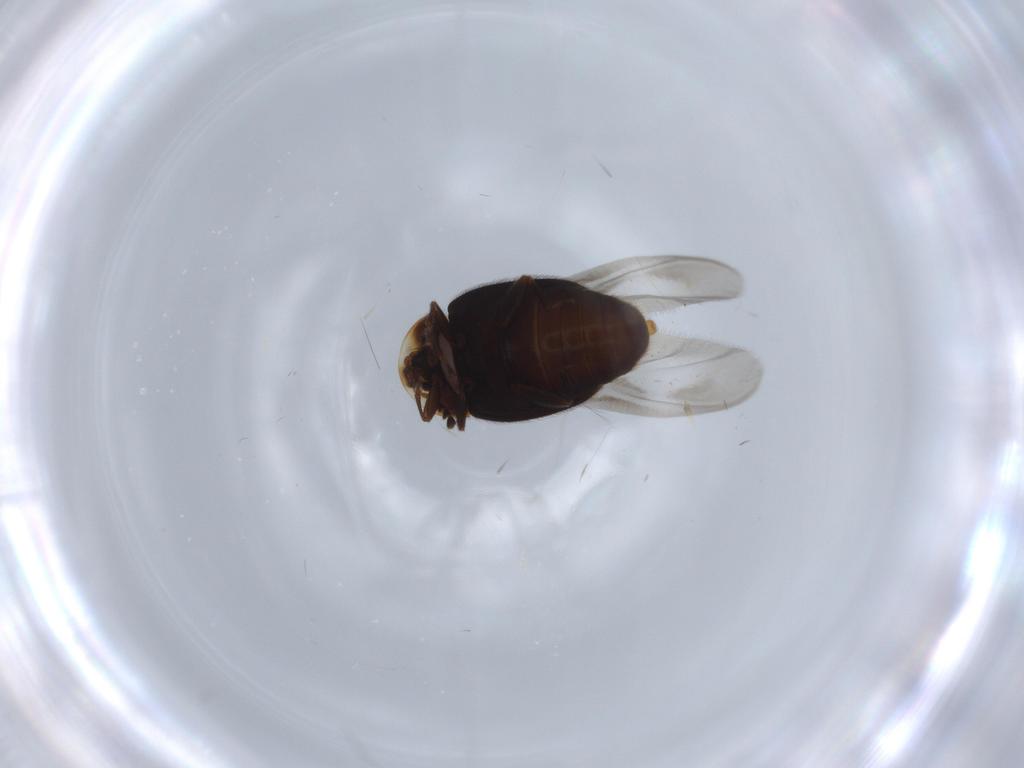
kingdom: Animalia
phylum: Arthropoda
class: Insecta
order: Coleoptera
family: Corylophidae
